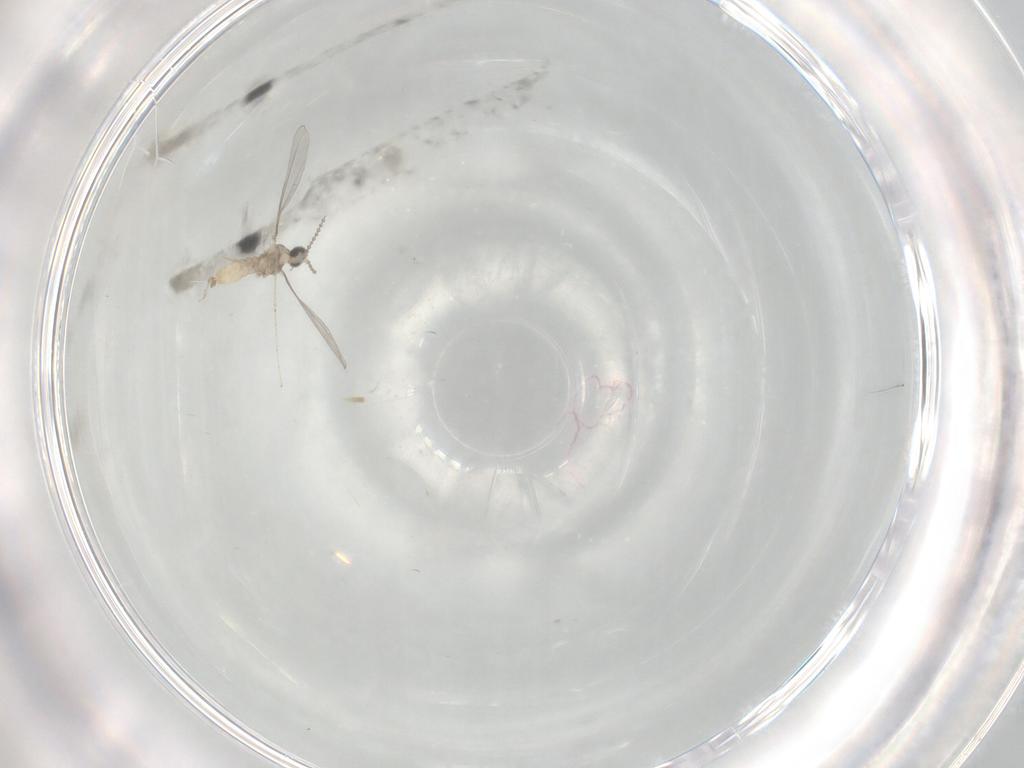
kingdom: Animalia
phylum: Arthropoda
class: Insecta
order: Diptera
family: Cecidomyiidae
